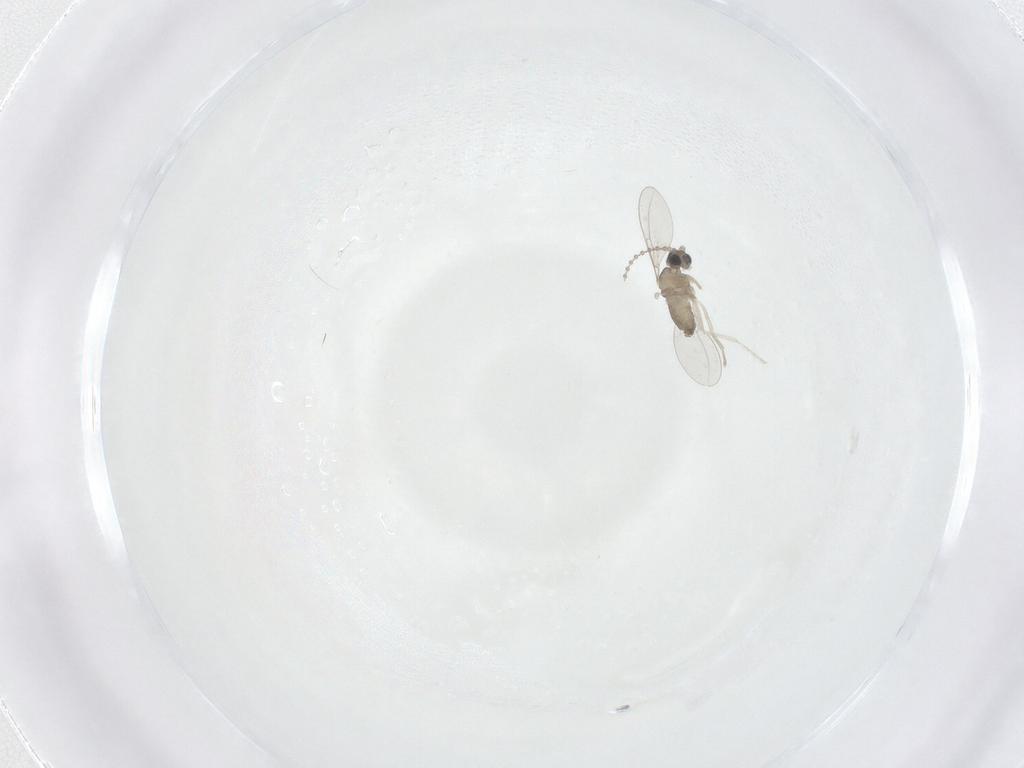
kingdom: Animalia
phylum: Arthropoda
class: Insecta
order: Diptera
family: Cecidomyiidae
